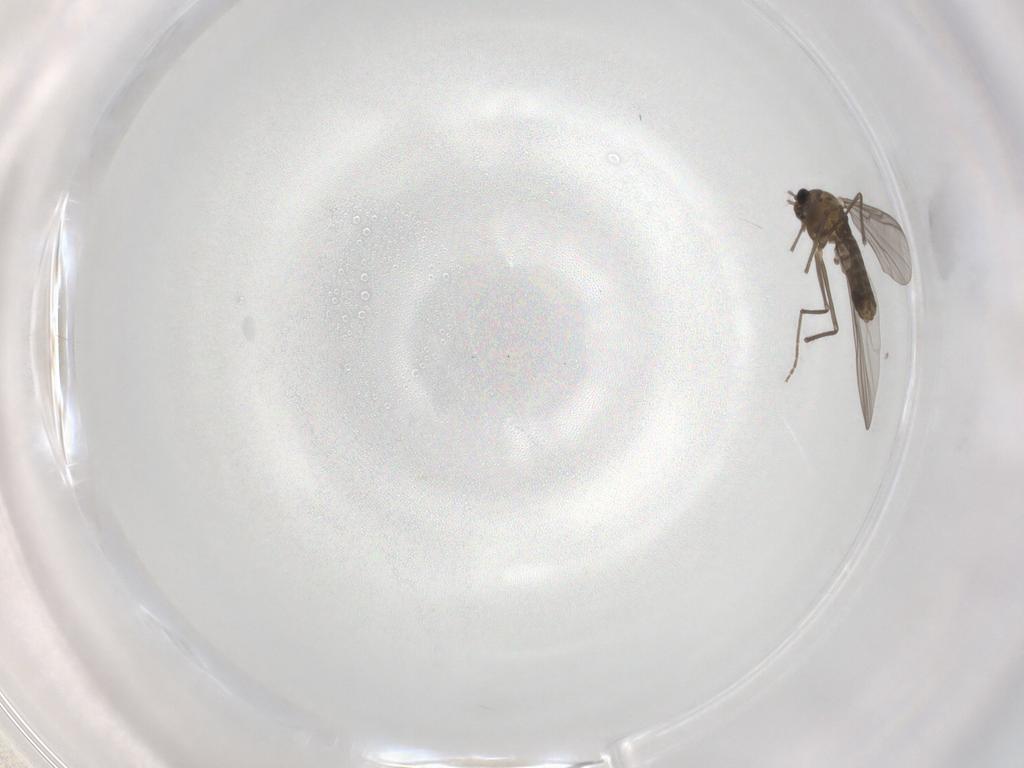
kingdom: Animalia
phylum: Arthropoda
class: Insecta
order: Diptera
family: Chironomidae
